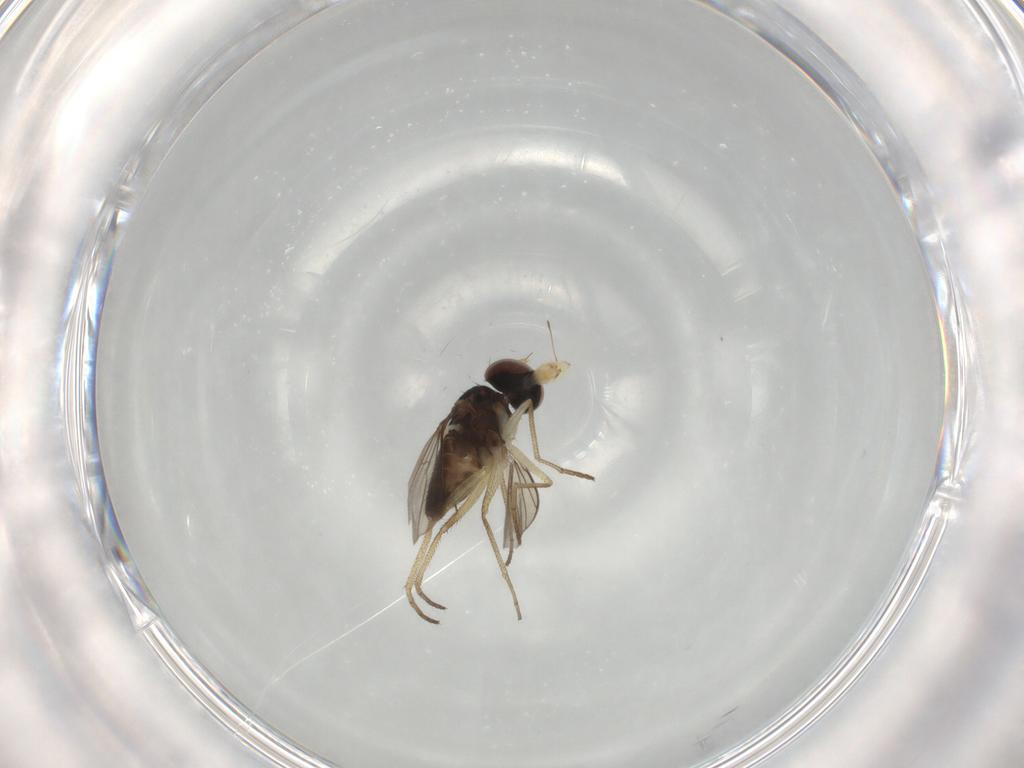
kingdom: Animalia
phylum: Arthropoda
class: Insecta
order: Diptera
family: Dolichopodidae
